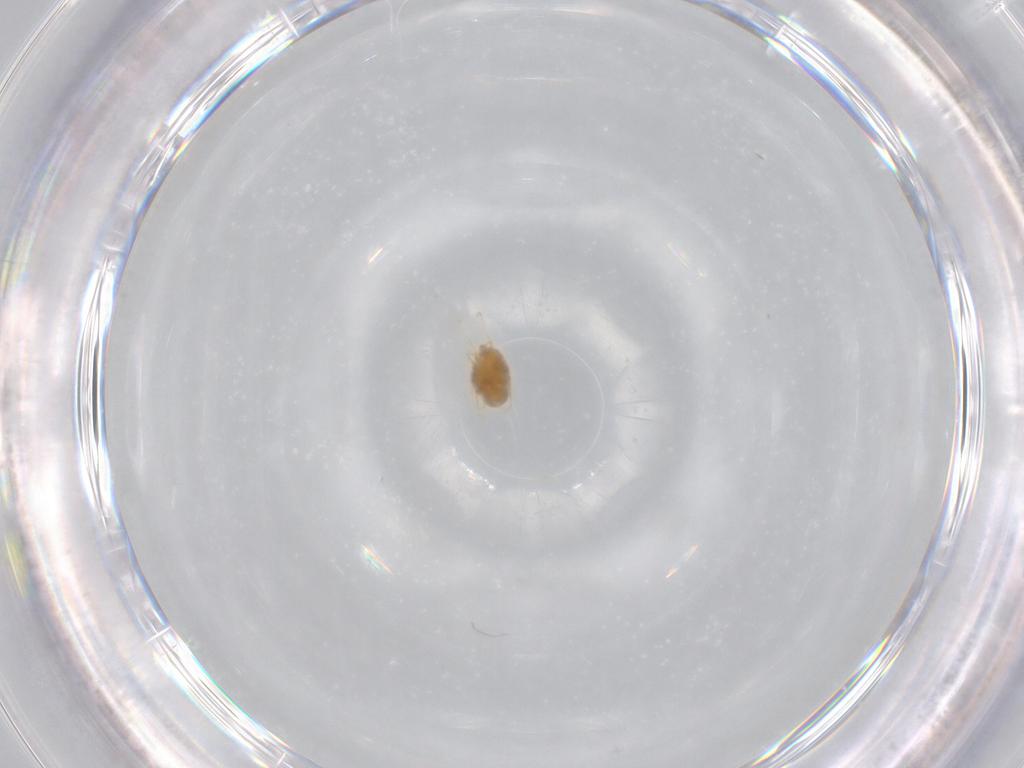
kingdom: Animalia
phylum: Arthropoda
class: Arachnida
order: Trombidiformes
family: Tetranychidae
